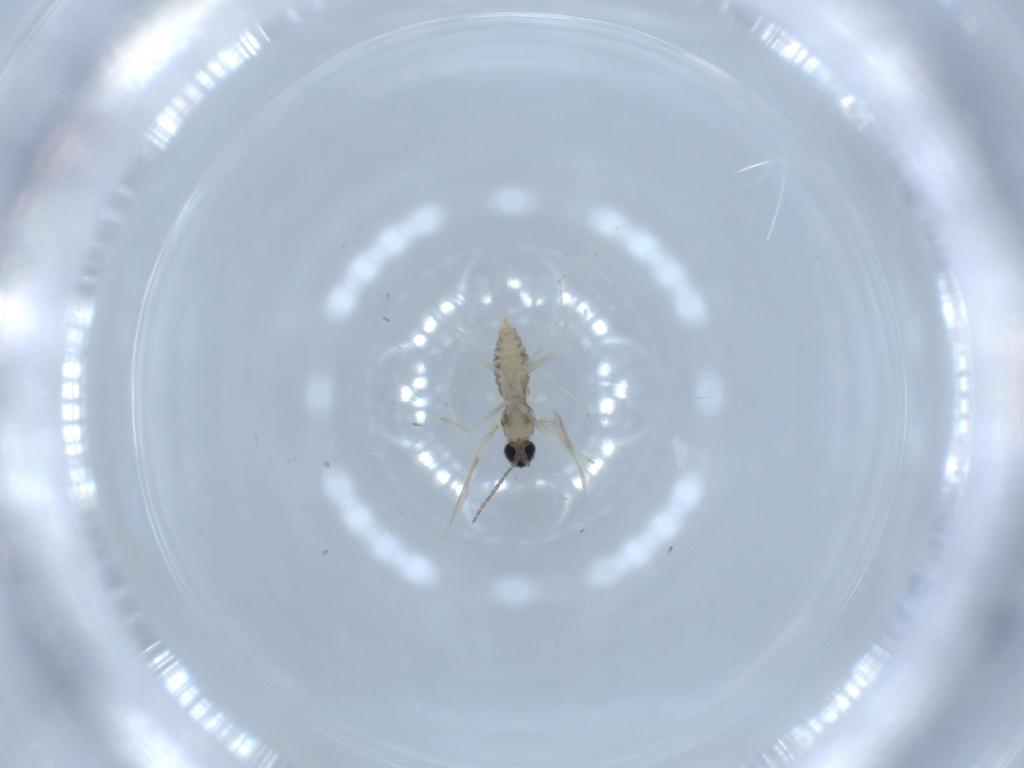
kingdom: Animalia
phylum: Arthropoda
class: Insecta
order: Diptera
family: Cecidomyiidae
